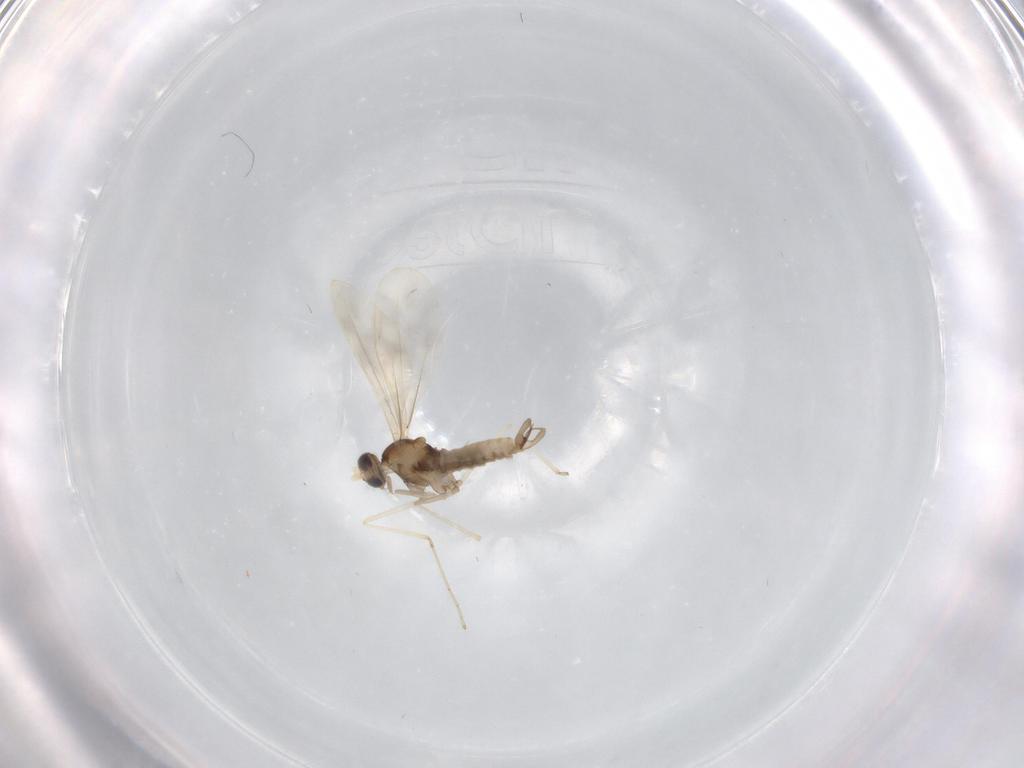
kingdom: Animalia
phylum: Arthropoda
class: Insecta
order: Diptera
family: Cecidomyiidae
